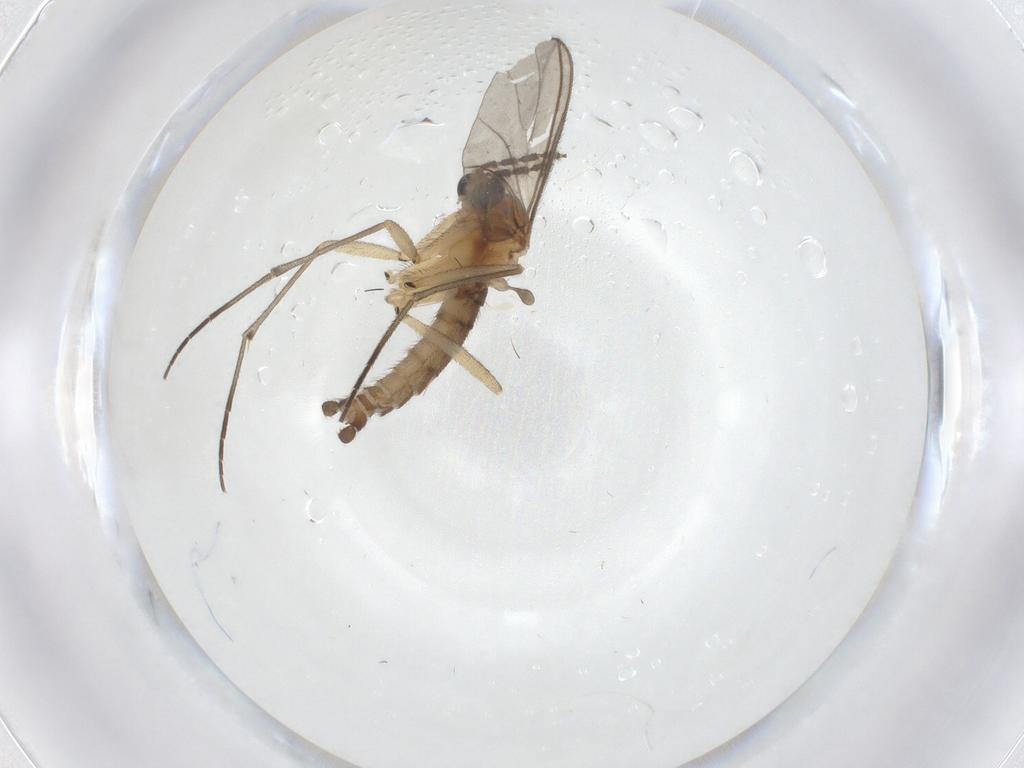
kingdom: Animalia
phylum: Arthropoda
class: Insecta
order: Diptera
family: Sciaridae
